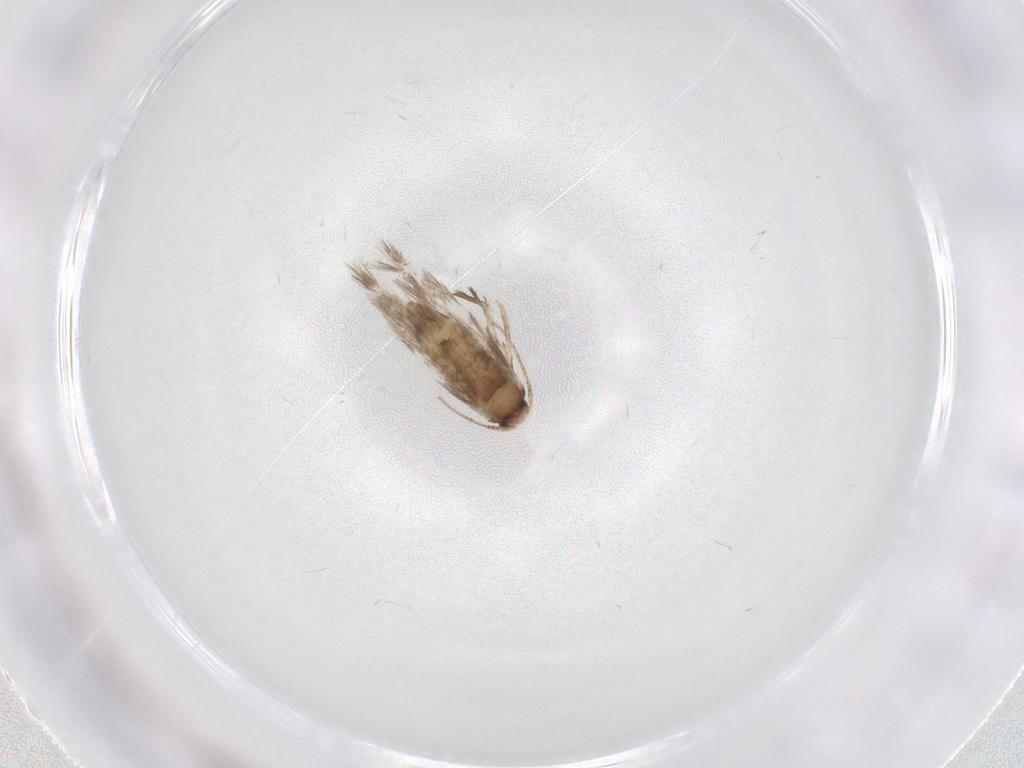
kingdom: Animalia
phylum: Arthropoda
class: Insecta
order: Lepidoptera
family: Nepticulidae
